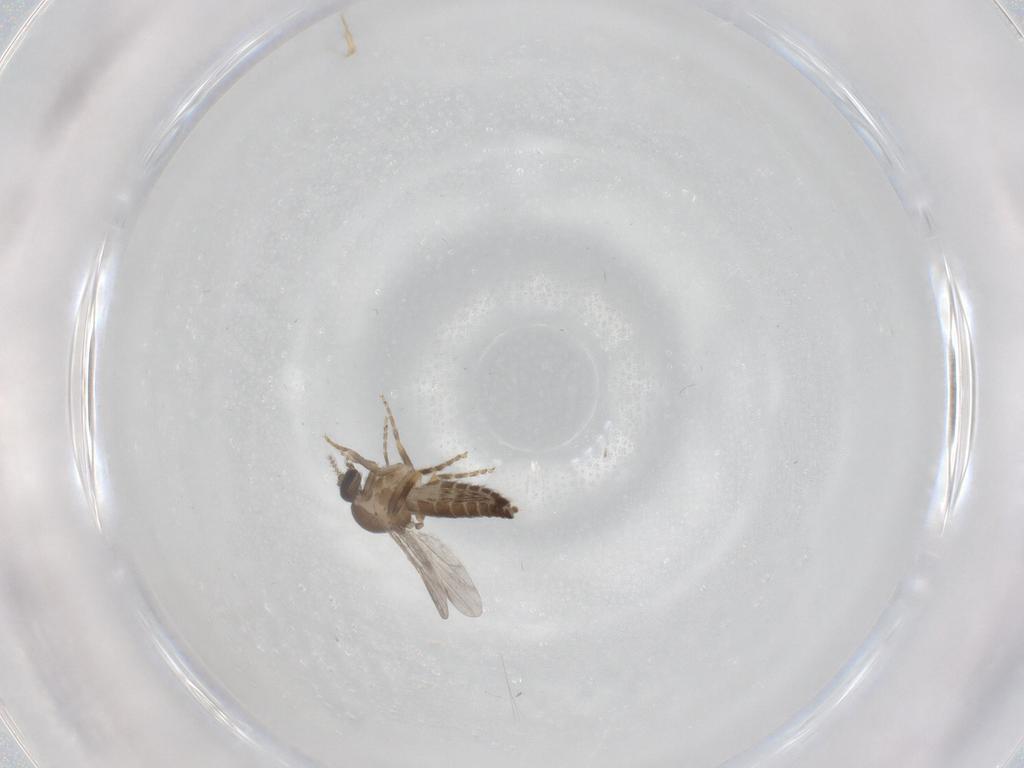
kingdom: Animalia
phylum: Arthropoda
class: Insecta
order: Diptera
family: Ceratopogonidae
